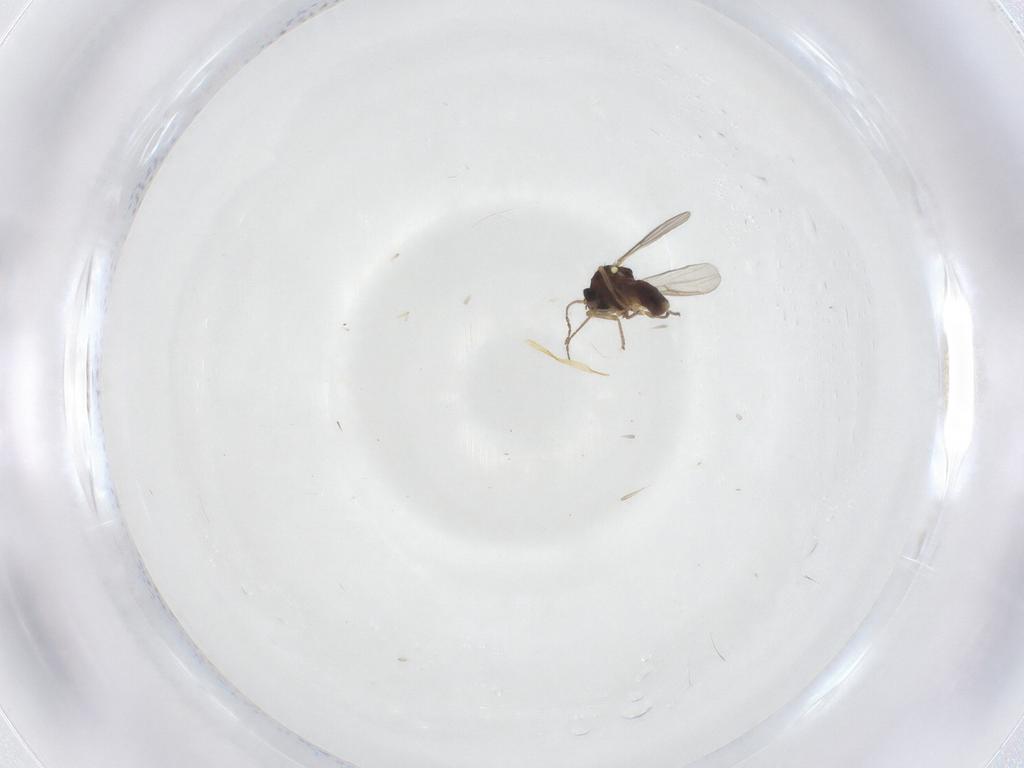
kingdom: Animalia
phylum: Arthropoda
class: Insecta
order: Diptera
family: Ceratopogonidae
